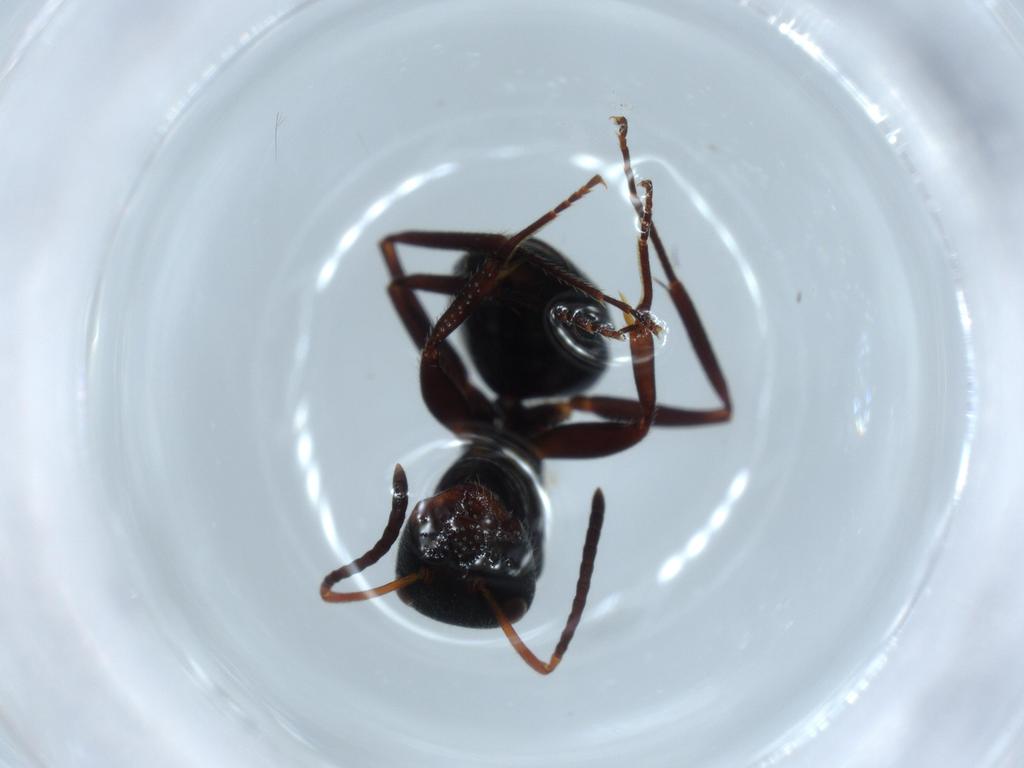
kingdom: Animalia
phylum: Arthropoda
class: Insecta
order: Hymenoptera
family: Formicidae
